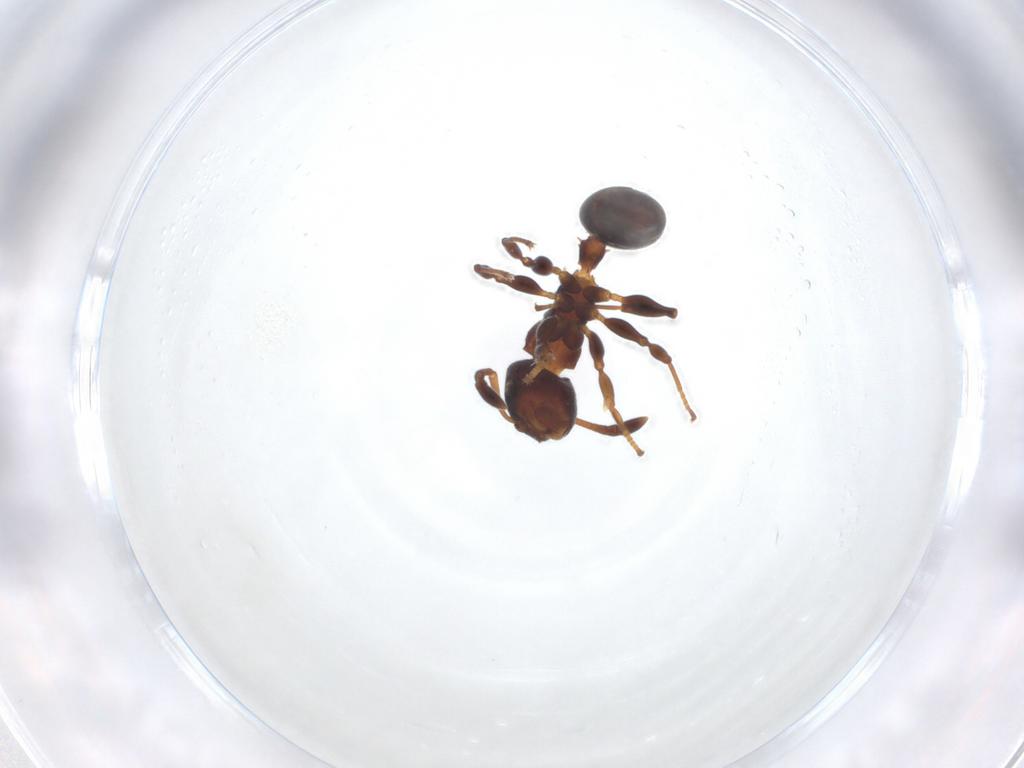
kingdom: Animalia
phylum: Arthropoda
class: Insecta
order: Hymenoptera
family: Formicidae
